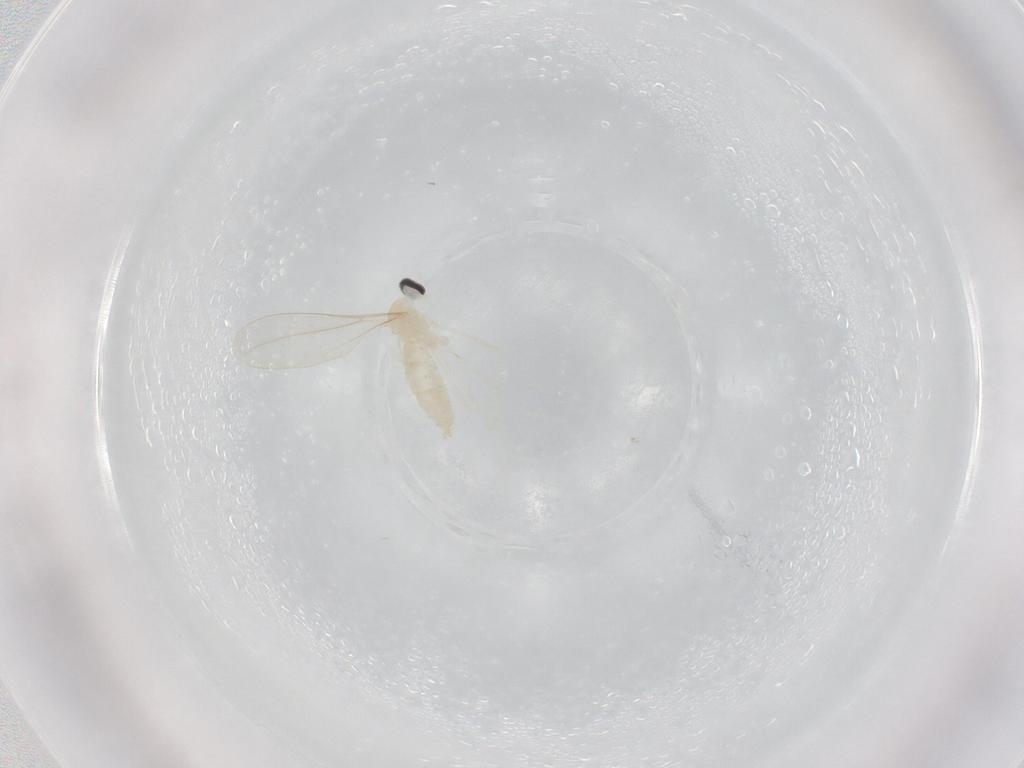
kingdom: Animalia
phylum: Arthropoda
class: Insecta
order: Diptera
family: Cecidomyiidae
